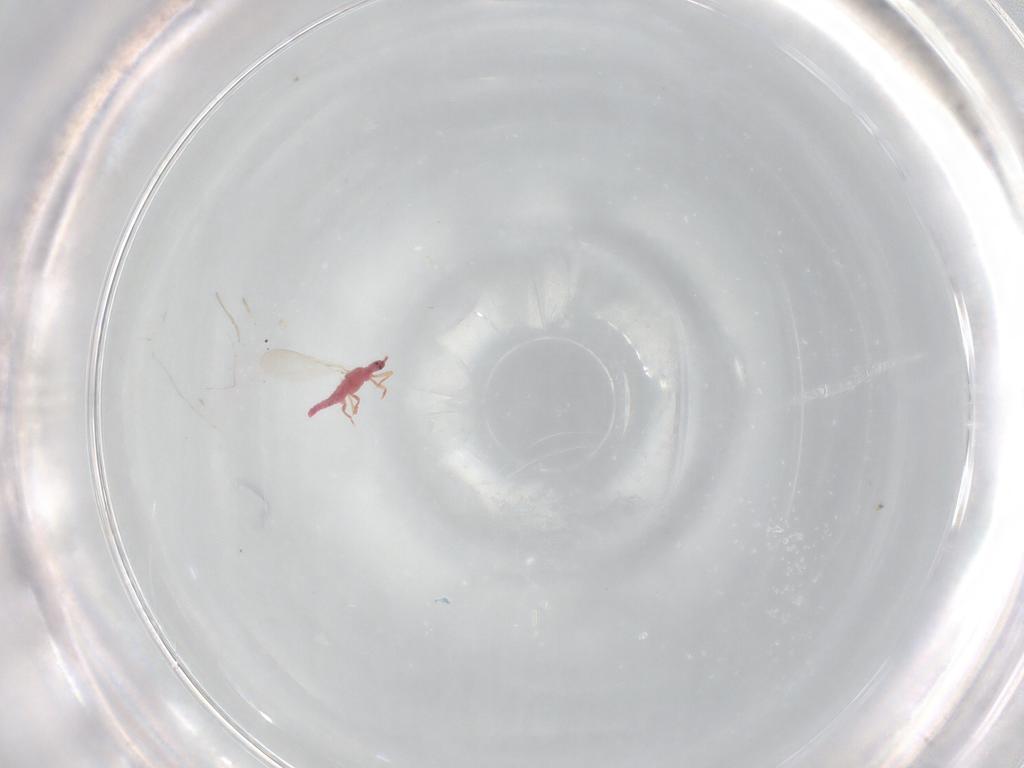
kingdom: Animalia
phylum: Arthropoda
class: Insecta
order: Hemiptera
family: Pseudococcidae
